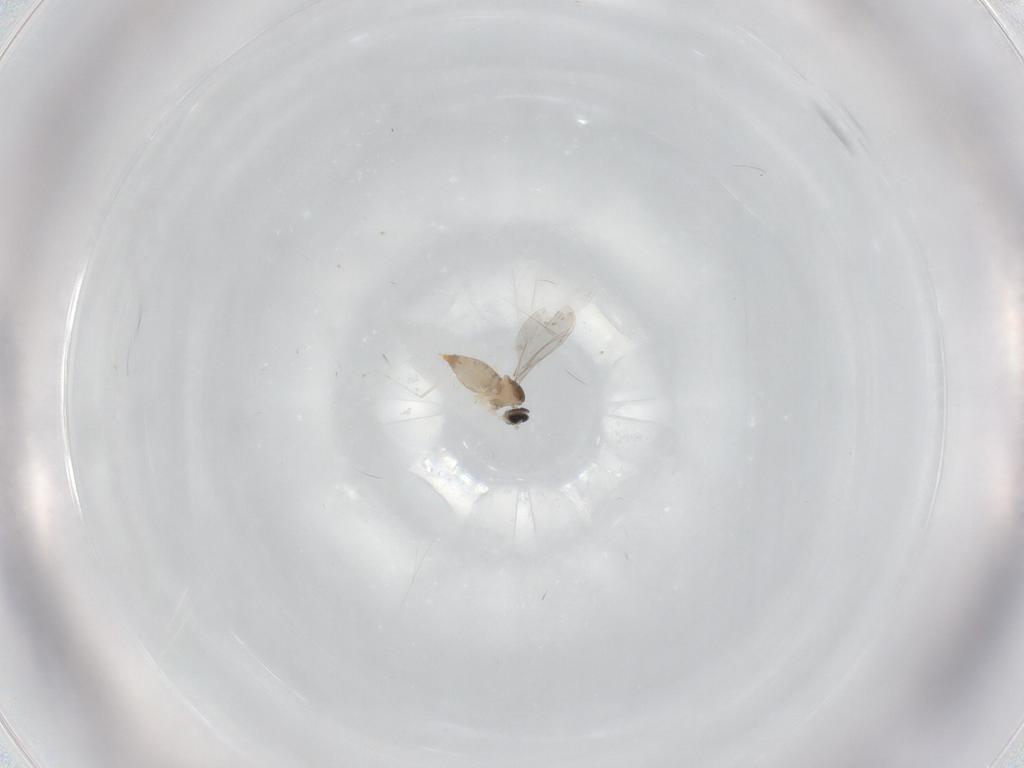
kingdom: Animalia
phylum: Arthropoda
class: Insecta
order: Diptera
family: Cecidomyiidae
